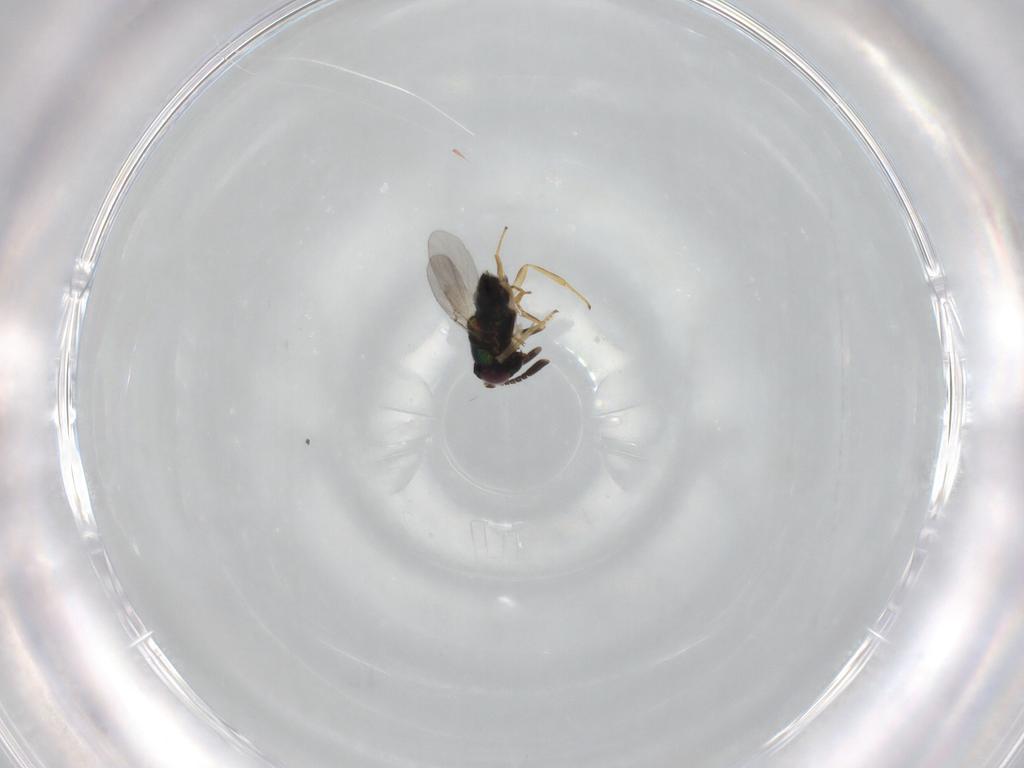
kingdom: Animalia
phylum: Arthropoda
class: Insecta
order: Hymenoptera
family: Encyrtidae
